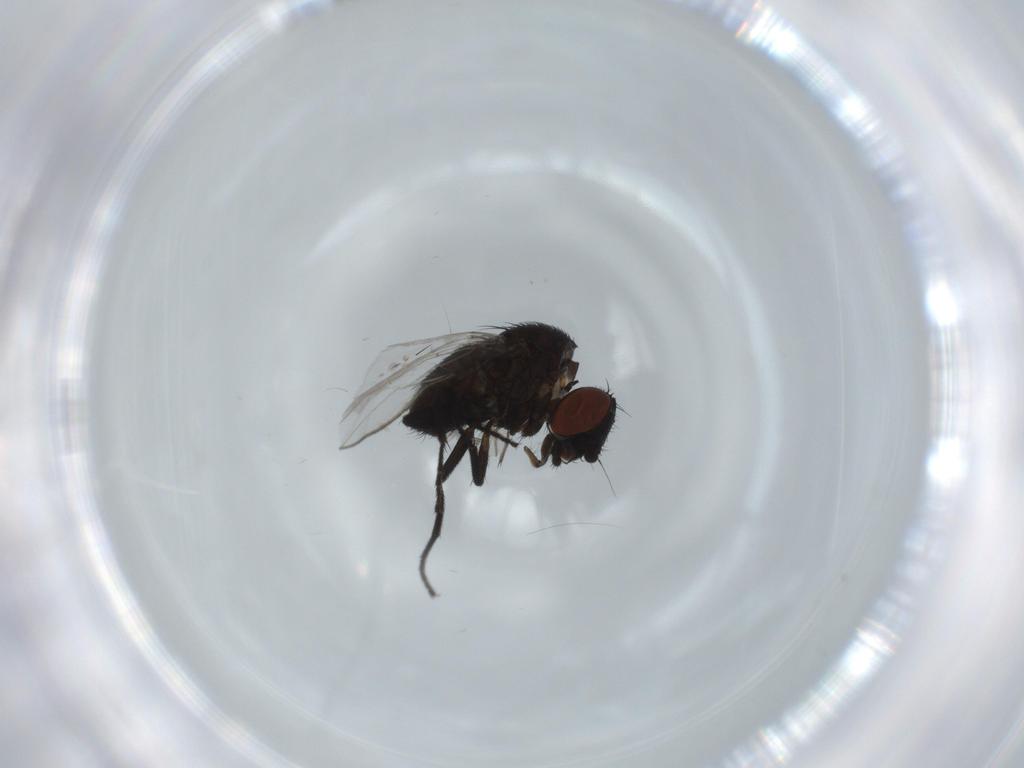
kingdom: Animalia
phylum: Arthropoda
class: Insecta
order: Diptera
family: Milichiidae
